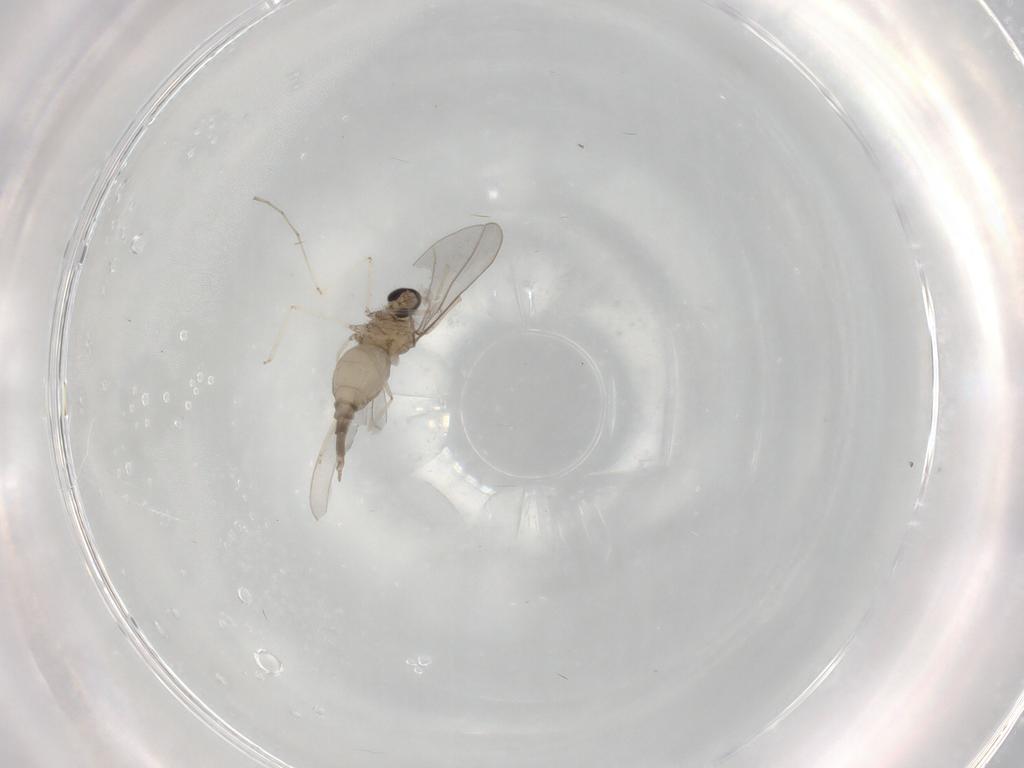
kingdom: Animalia
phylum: Arthropoda
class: Insecta
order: Diptera
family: Cecidomyiidae
